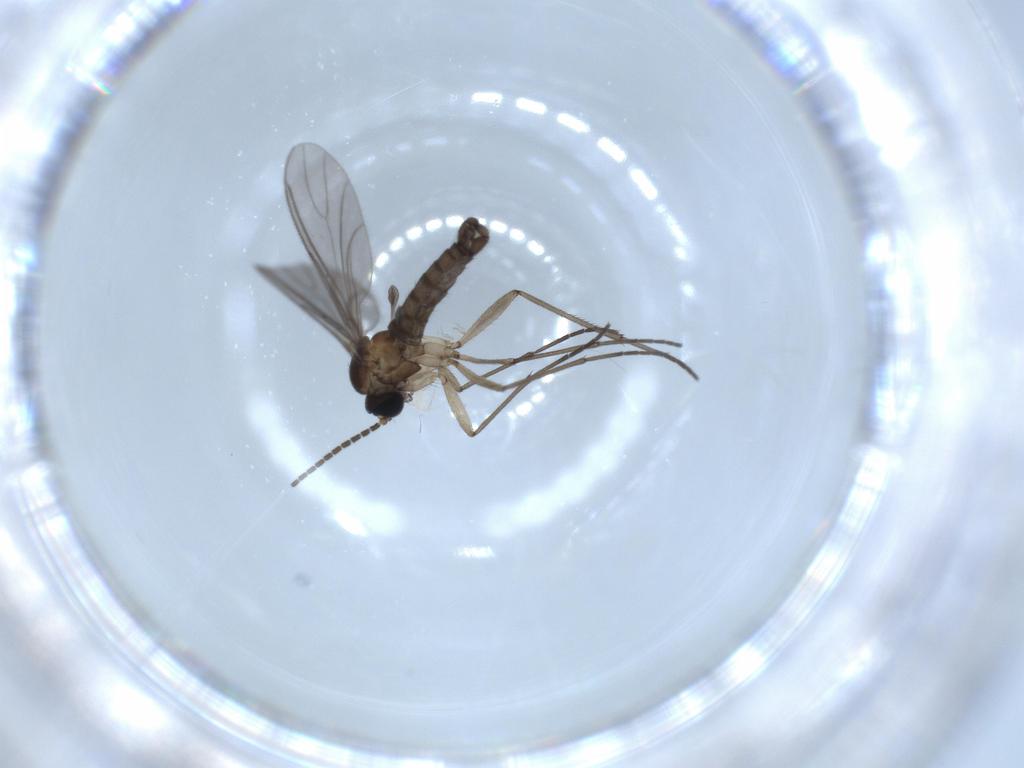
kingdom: Animalia
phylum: Arthropoda
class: Insecta
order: Diptera
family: Sciaridae
